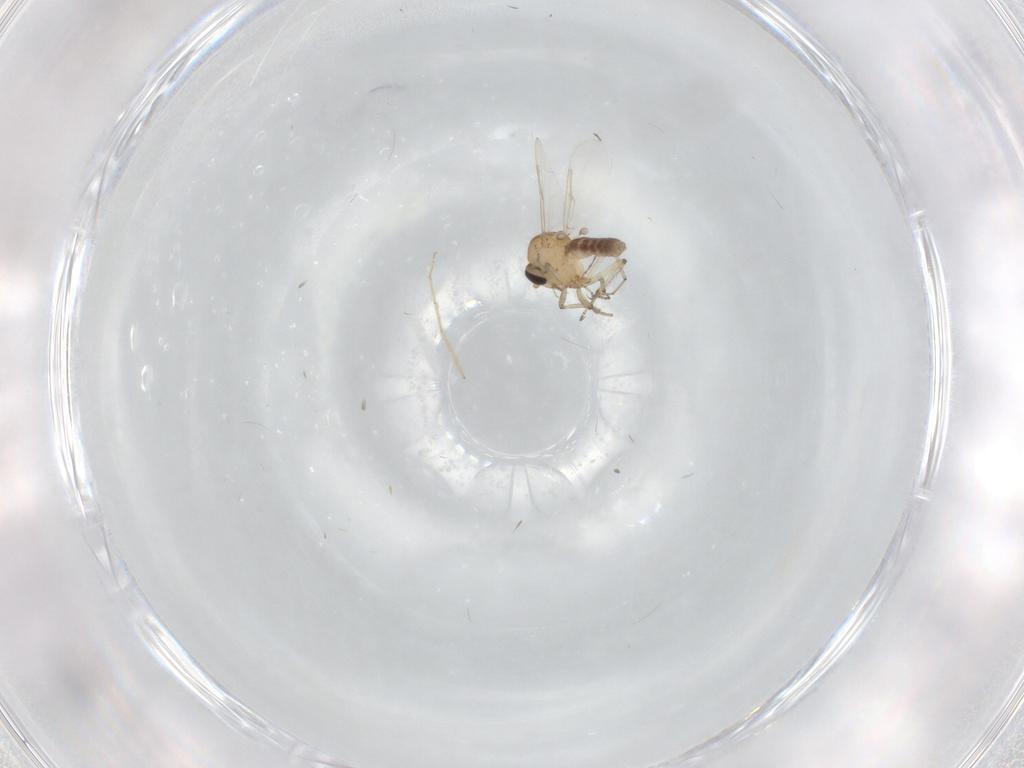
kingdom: Animalia
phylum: Arthropoda
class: Insecta
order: Diptera
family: Ceratopogonidae
